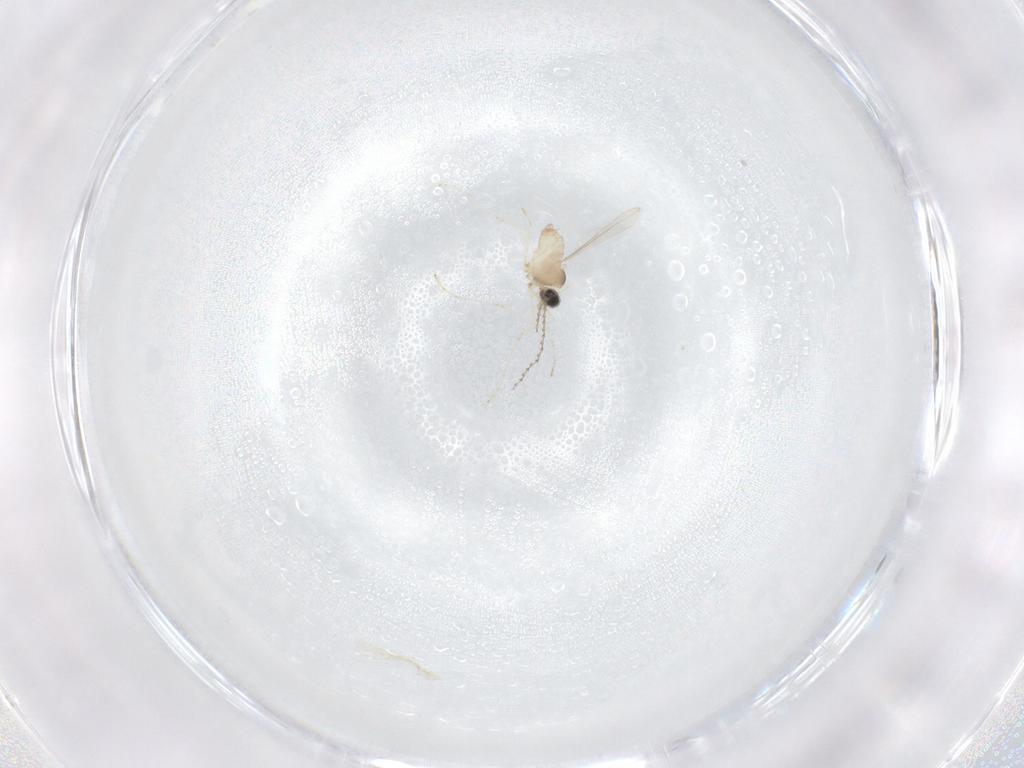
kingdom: Animalia
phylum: Arthropoda
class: Insecta
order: Diptera
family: Cecidomyiidae
